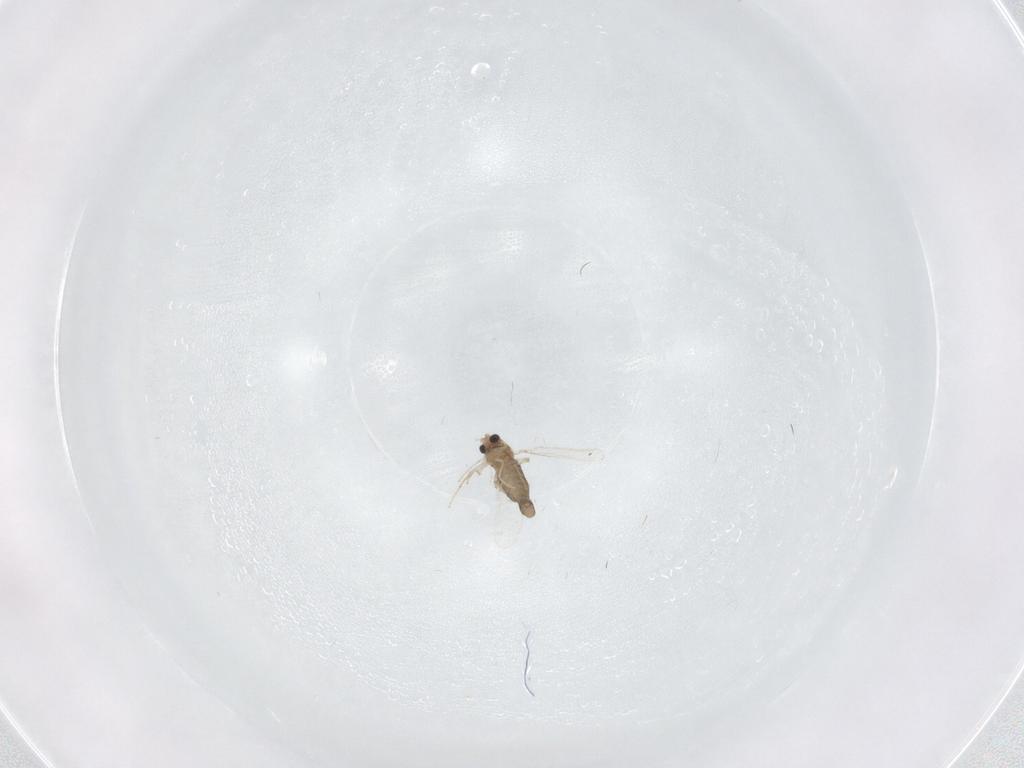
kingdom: Animalia
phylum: Arthropoda
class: Insecta
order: Diptera
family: Chironomidae
